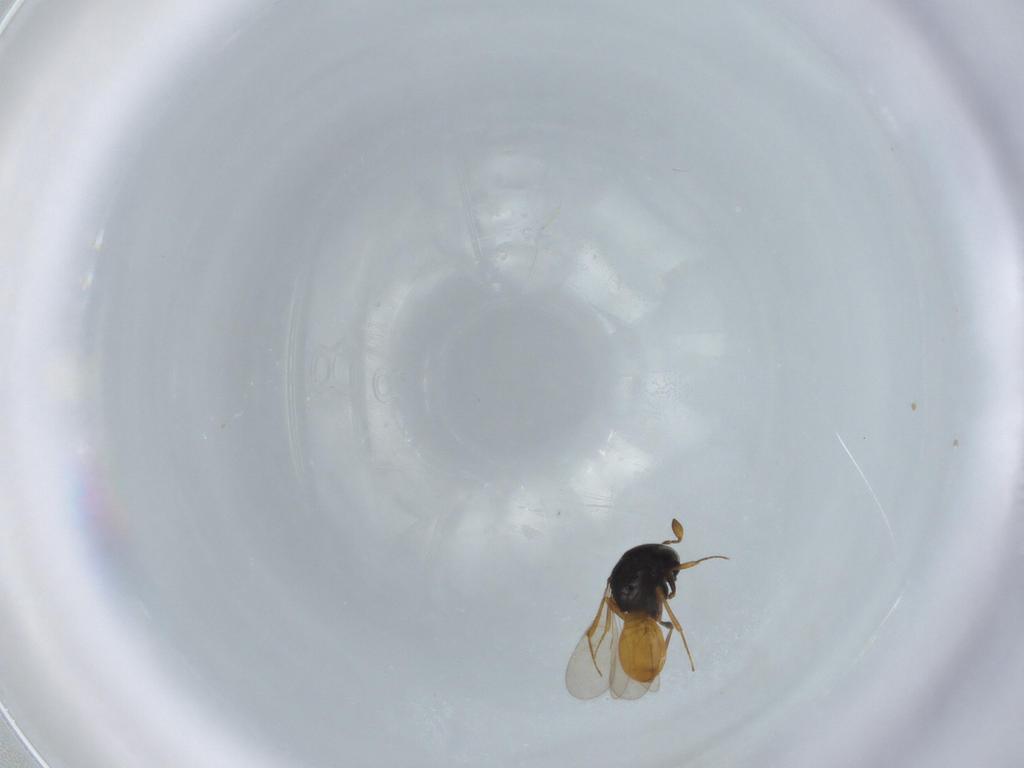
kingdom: Animalia
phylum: Arthropoda
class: Insecta
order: Hymenoptera
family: Scelionidae
